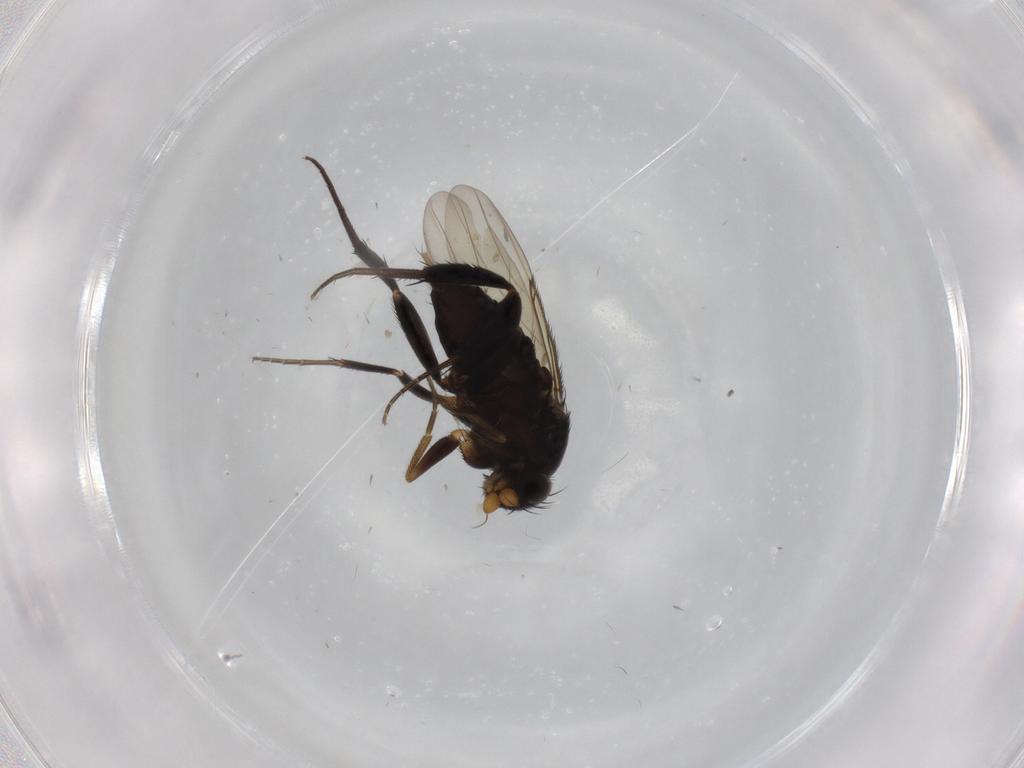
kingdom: Animalia
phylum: Arthropoda
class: Insecta
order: Diptera
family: Phoridae
